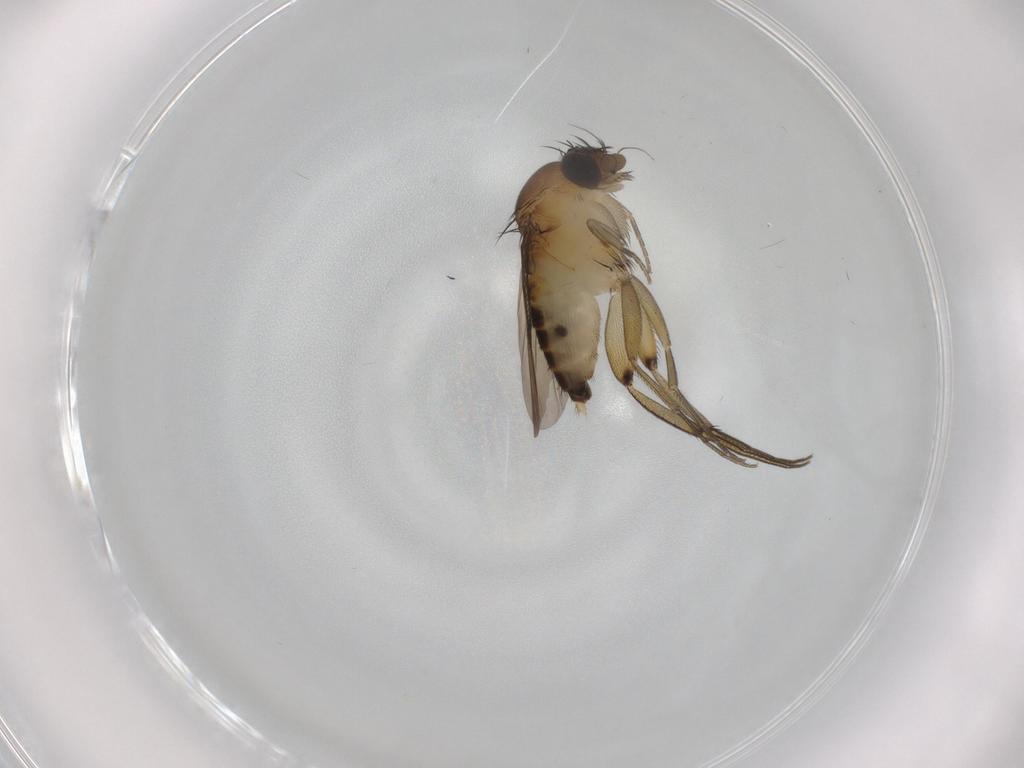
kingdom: Animalia
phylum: Arthropoda
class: Insecta
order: Diptera
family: Phoridae
